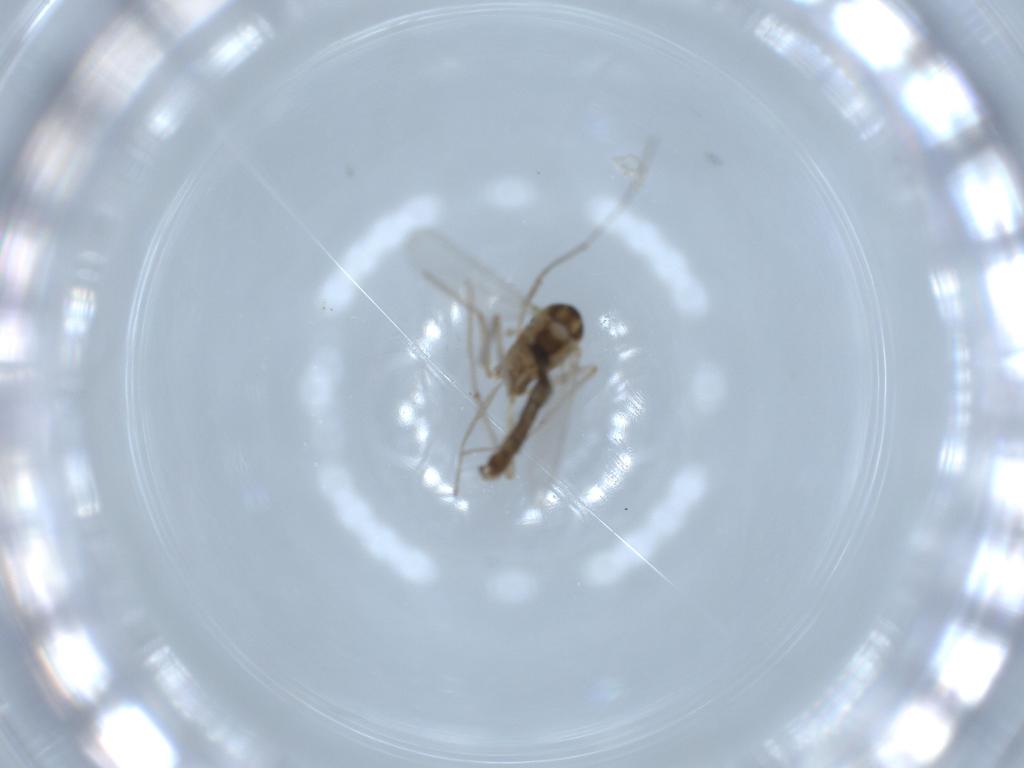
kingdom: Animalia
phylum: Arthropoda
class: Insecta
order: Diptera
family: Chironomidae
